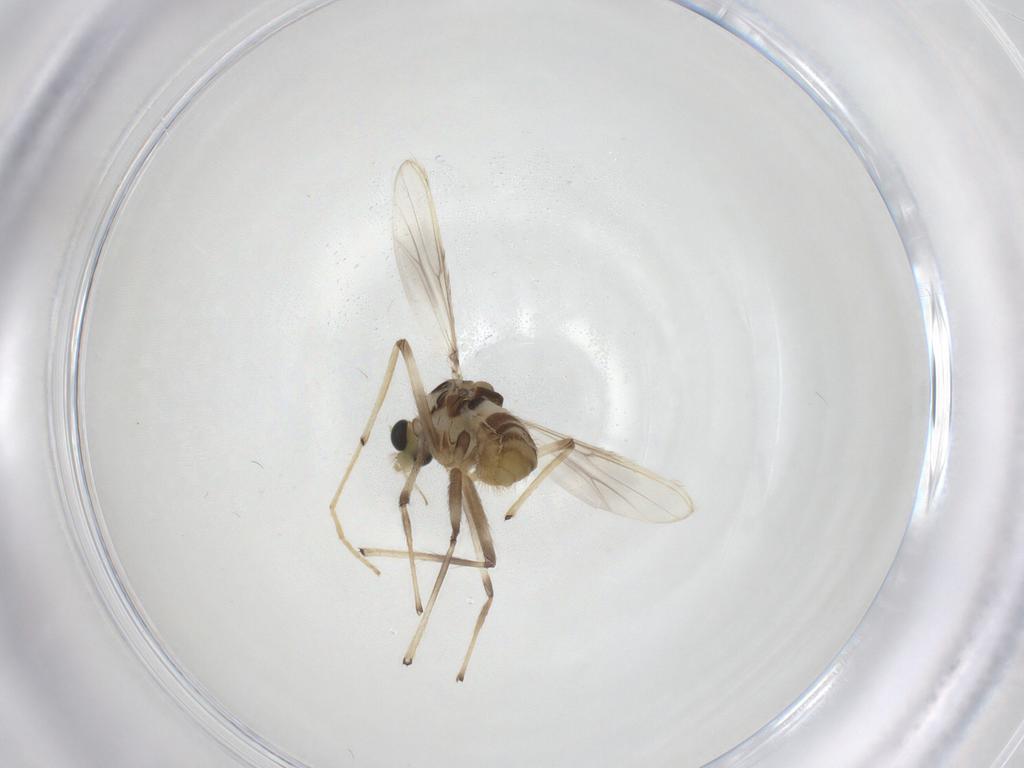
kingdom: Animalia
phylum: Arthropoda
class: Insecta
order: Diptera
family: Chironomidae
